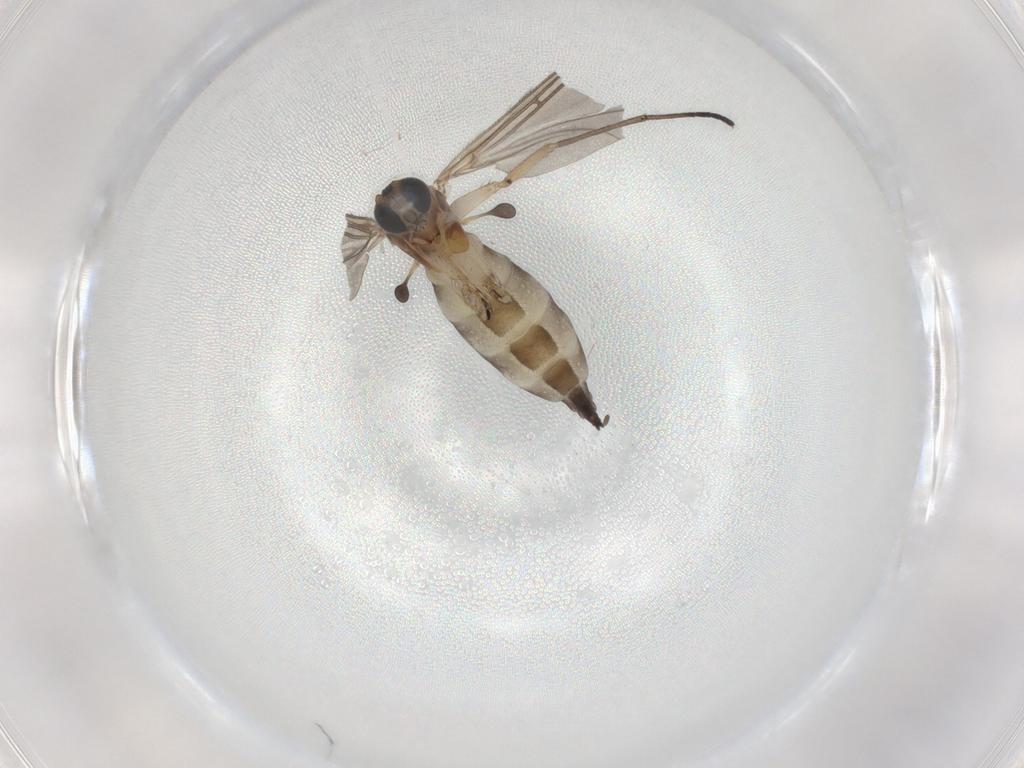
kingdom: Animalia
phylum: Arthropoda
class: Insecta
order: Diptera
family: Sciaridae
